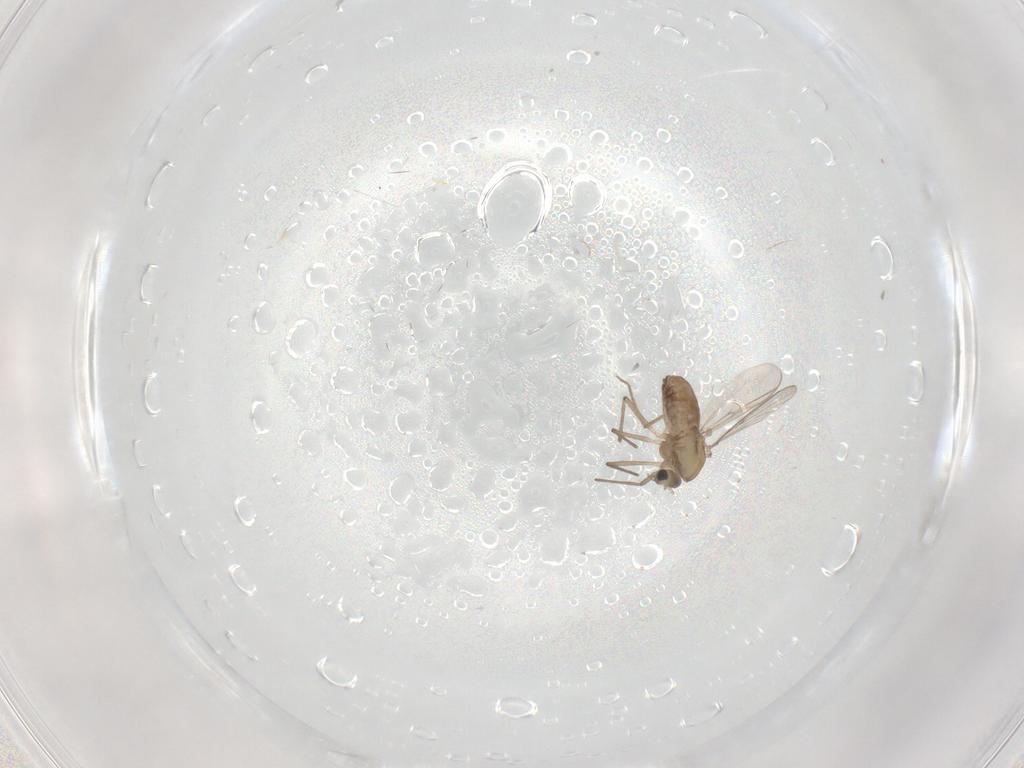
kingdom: Animalia
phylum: Arthropoda
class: Insecta
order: Diptera
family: Chironomidae
